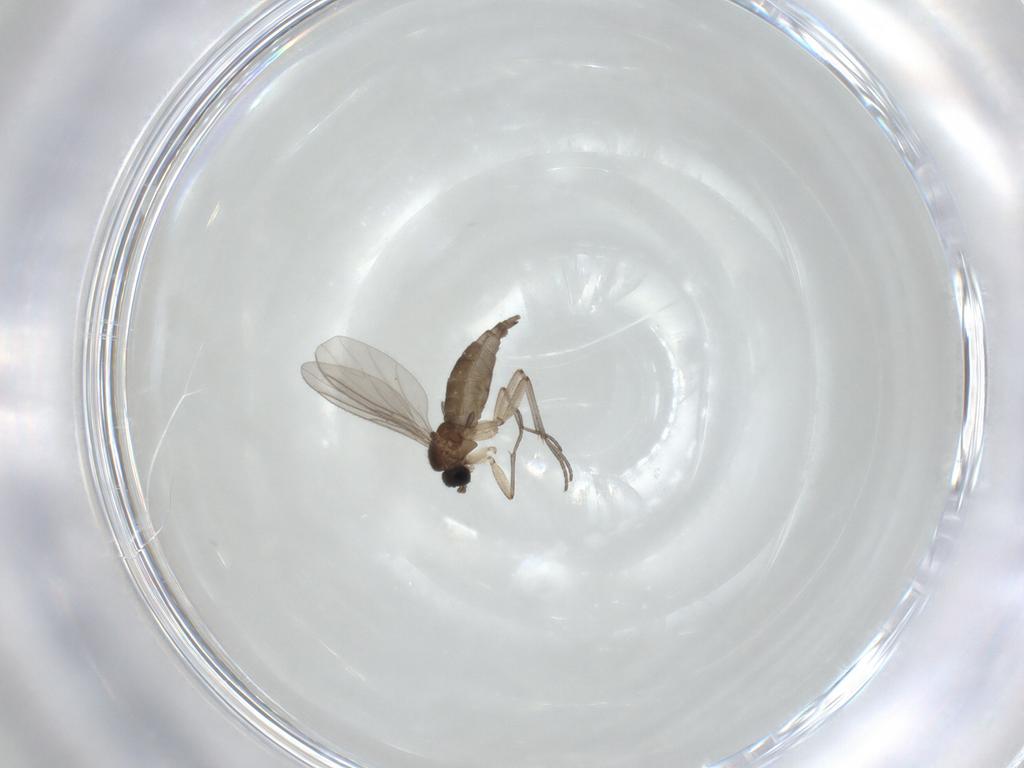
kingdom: Animalia
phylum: Arthropoda
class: Insecta
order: Diptera
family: Sciaridae
